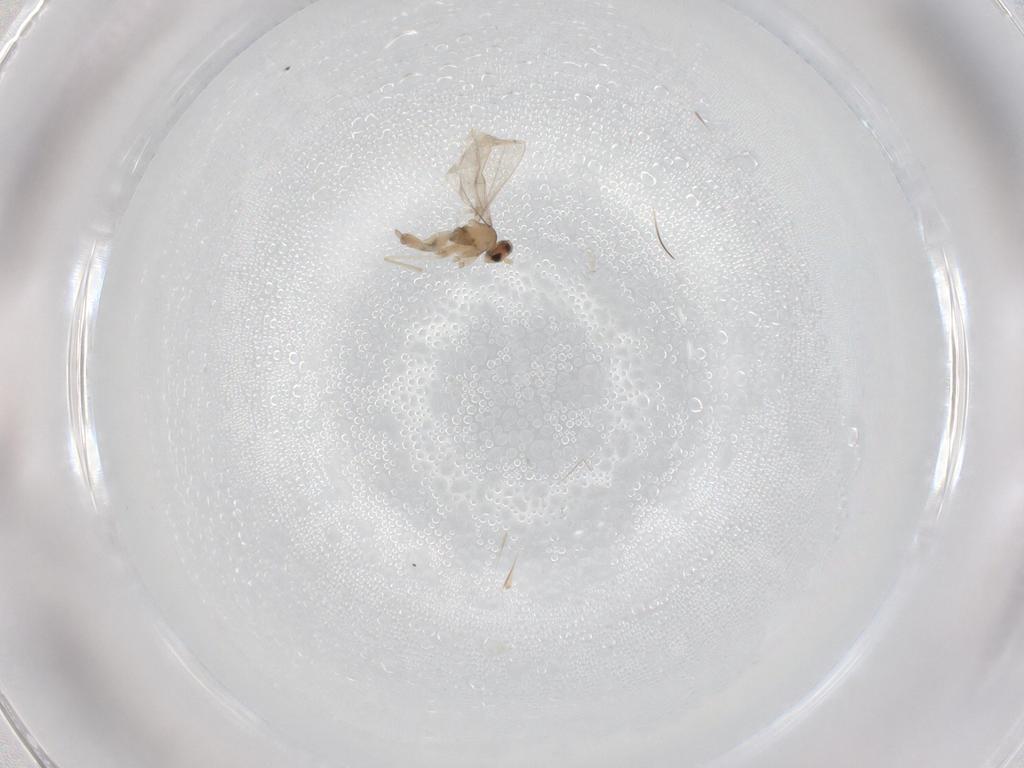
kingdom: Animalia
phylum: Arthropoda
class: Insecta
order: Diptera
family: Cecidomyiidae
